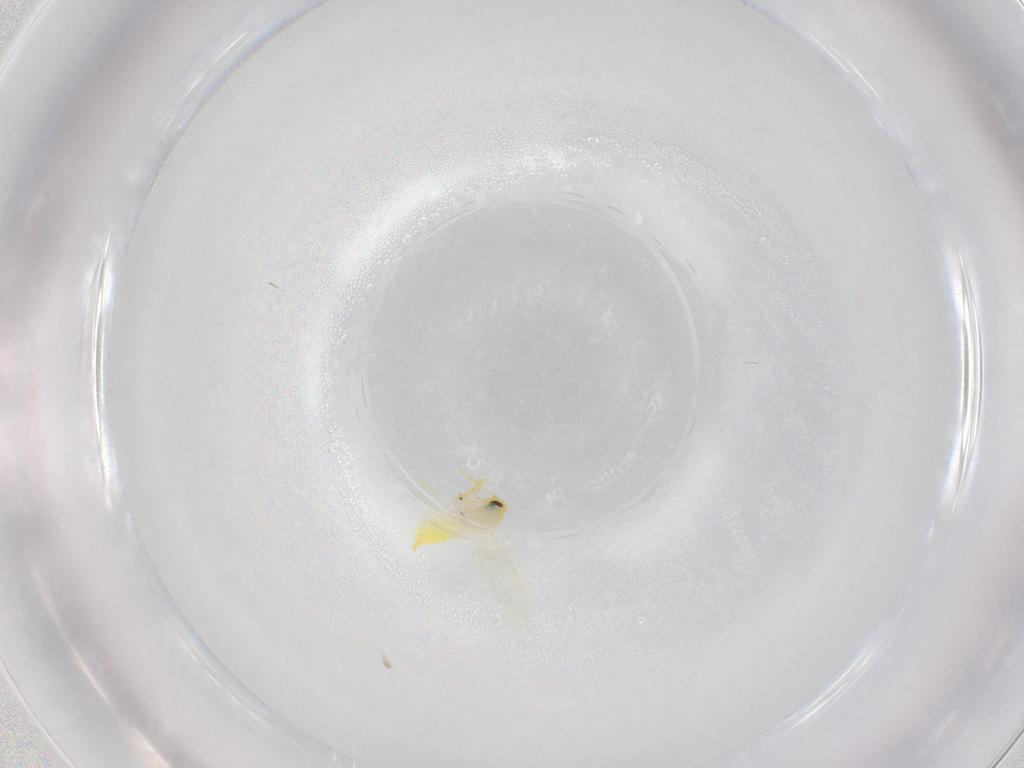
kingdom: Animalia
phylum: Arthropoda
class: Insecta
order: Hemiptera
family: Aleyrodidae
